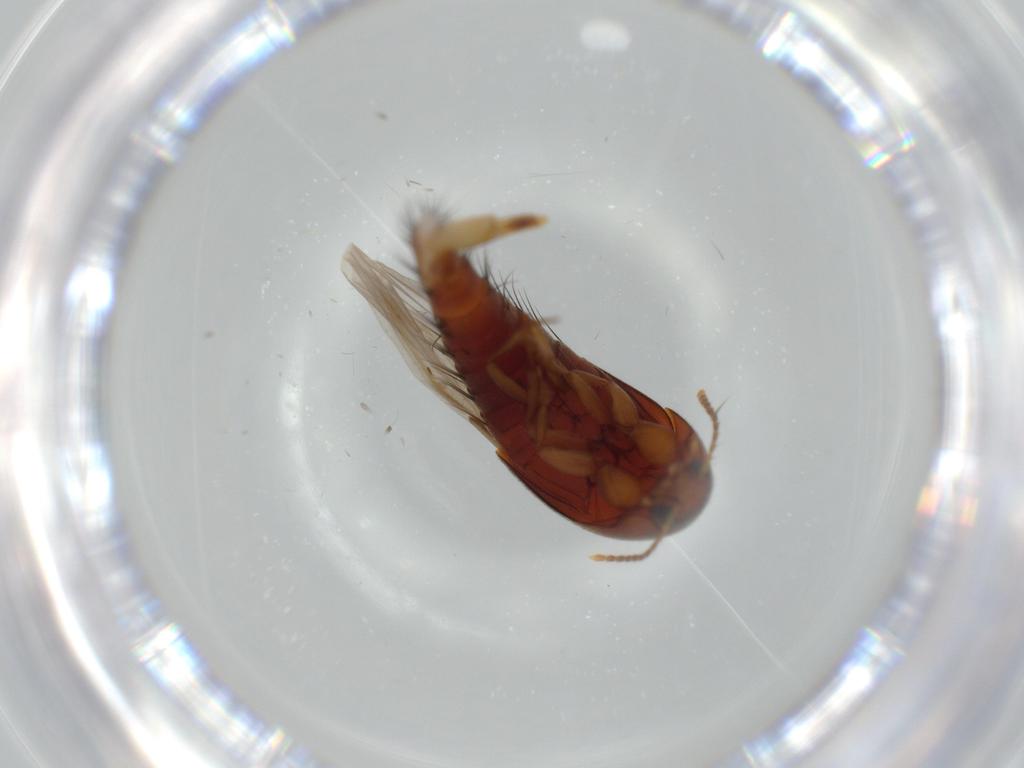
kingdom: Animalia
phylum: Arthropoda
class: Insecta
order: Coleoptera
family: Staphylinidae
